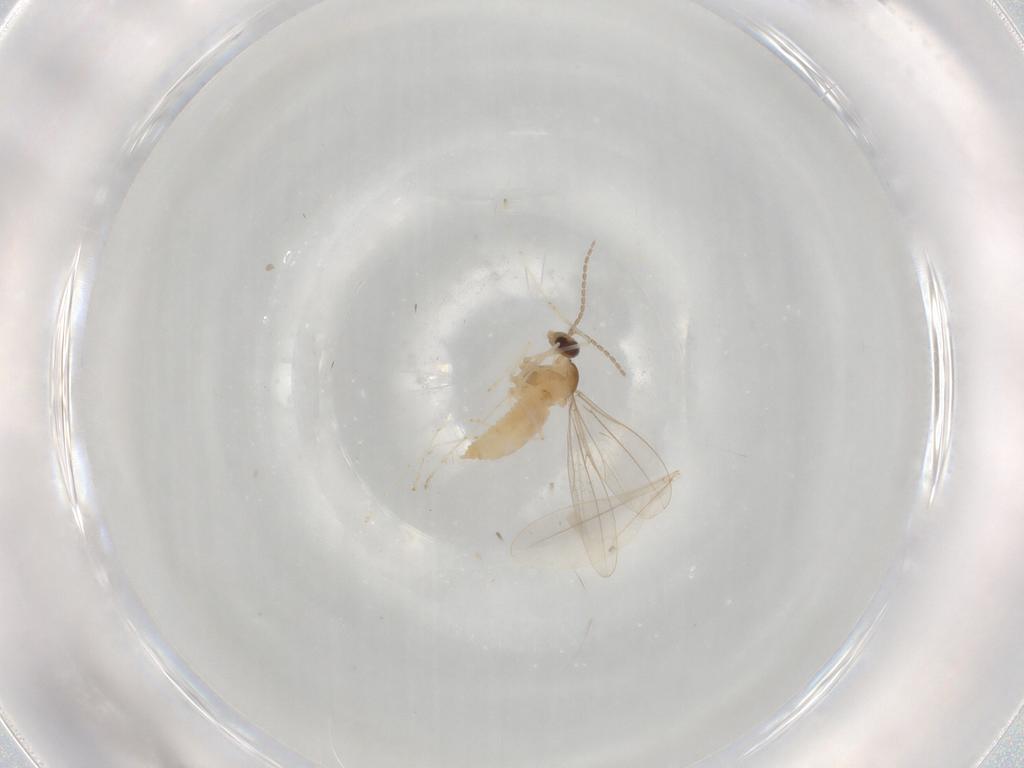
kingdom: Animalia
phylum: Arthropoda
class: Insecta
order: Diptera
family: Cecidomyiidae
